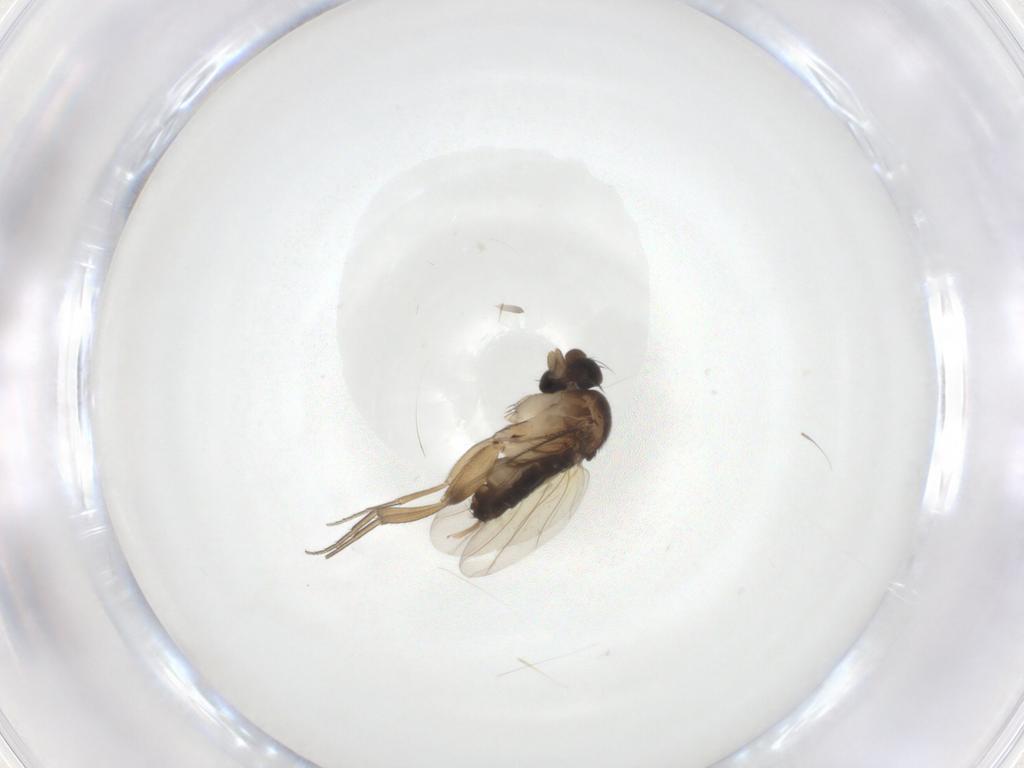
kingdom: Animalia
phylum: Arthropoda
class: Insecta
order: Diptera
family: Phoridae
